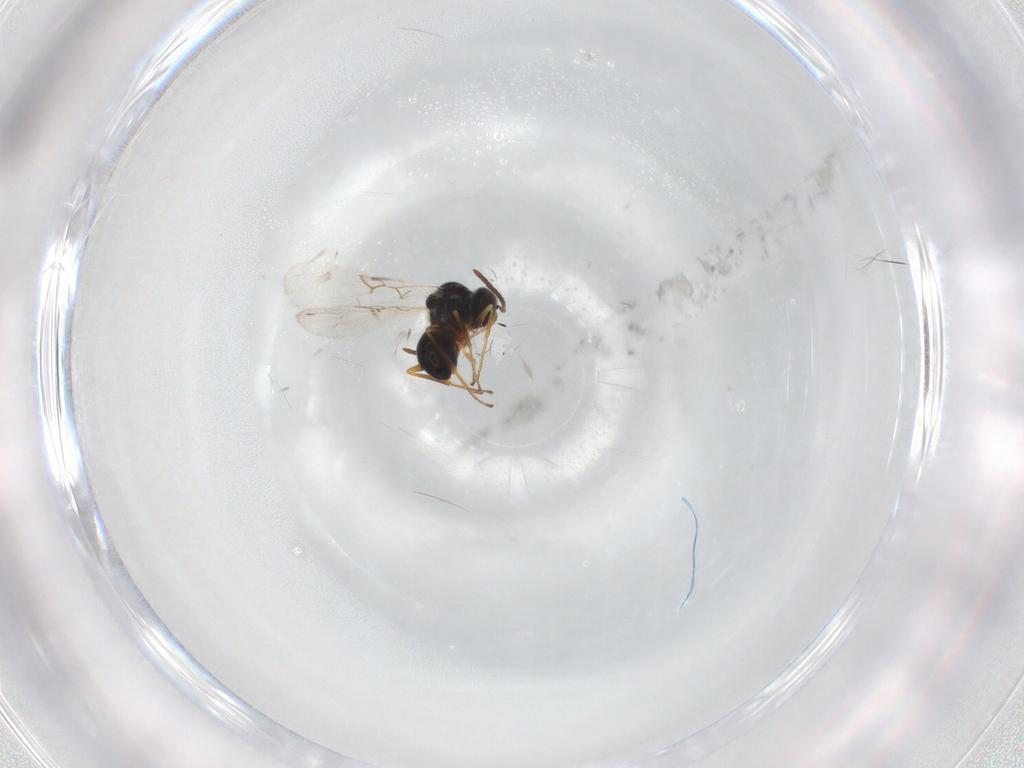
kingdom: Animalia
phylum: Arthropoda
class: Insecta
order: Hymenoptera
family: Figitidae
